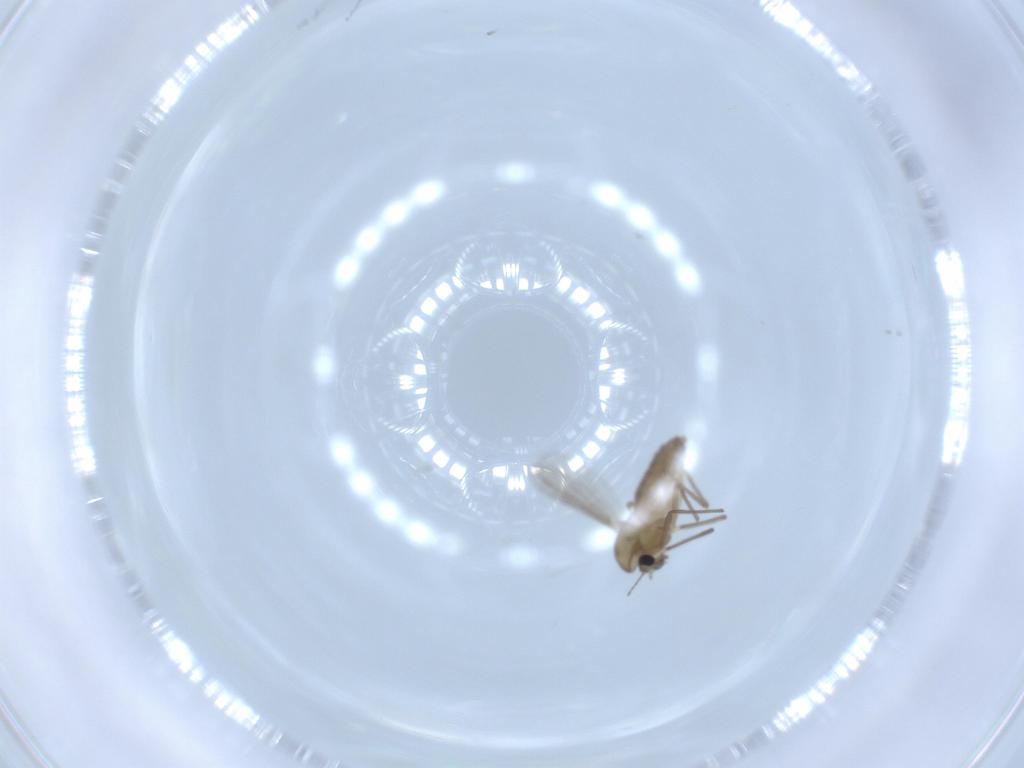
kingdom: Animalia
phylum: Arthropoda
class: Insecta
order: Diptera
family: Chironomidae
